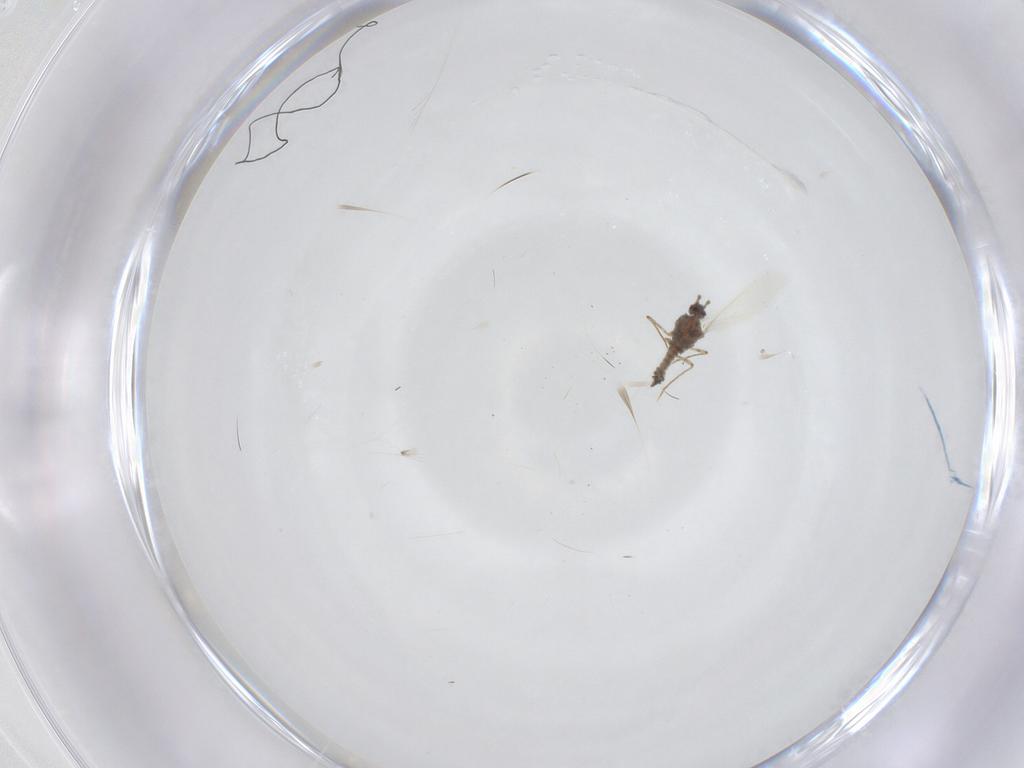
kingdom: Animalia
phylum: Arthropoda
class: Insecta
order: Hemiptera
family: Pseudococcidae
